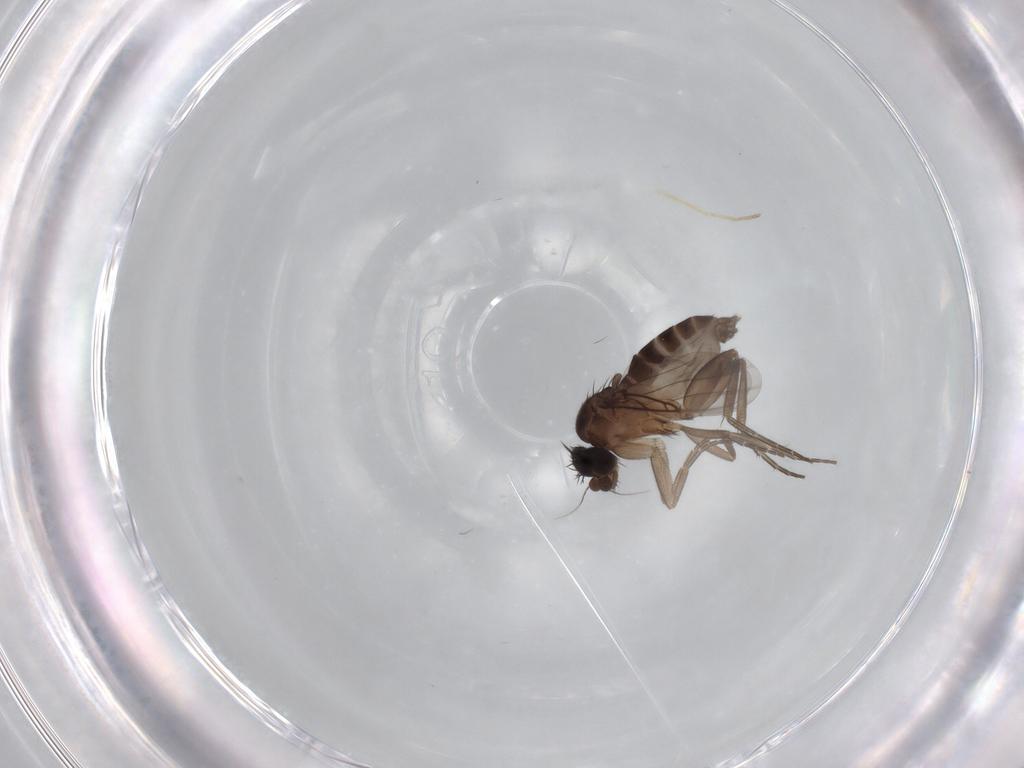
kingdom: Animalia
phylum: Arthropoda
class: Insecta
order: Diptera
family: Phoridae
